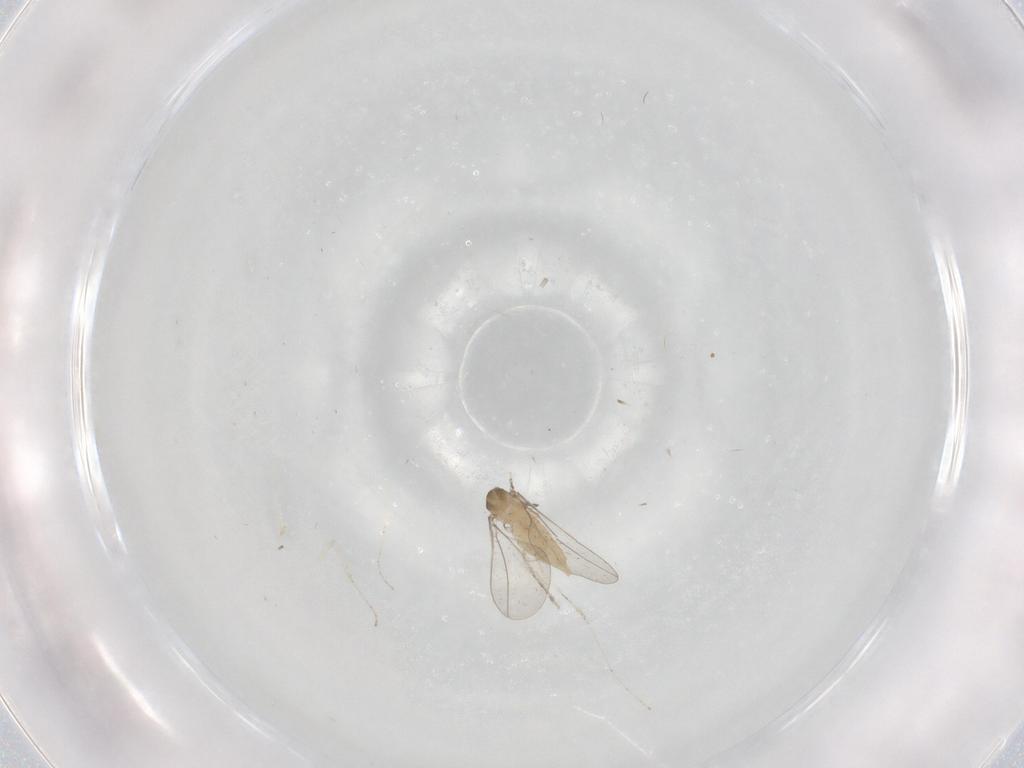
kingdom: Animalia
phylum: Arthropoda
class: Insecta
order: Diptera
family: Cecidomyiidae
